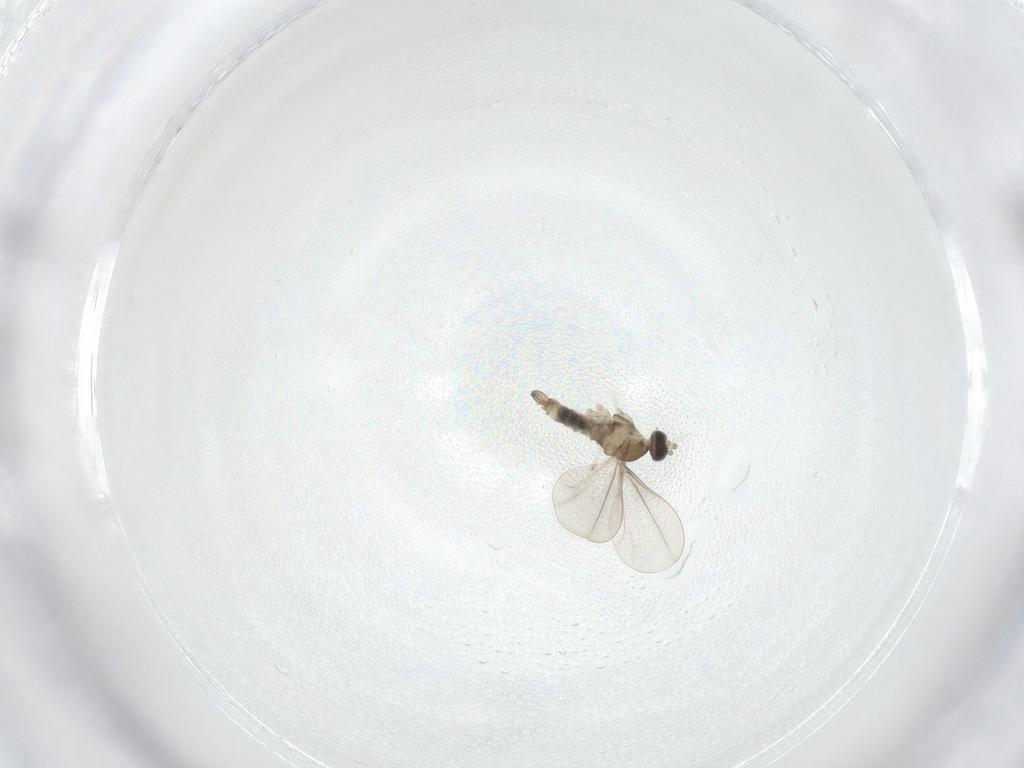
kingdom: Animalia
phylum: Arthropoda
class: Insecta
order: Diptera
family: Cecidomyiidae
